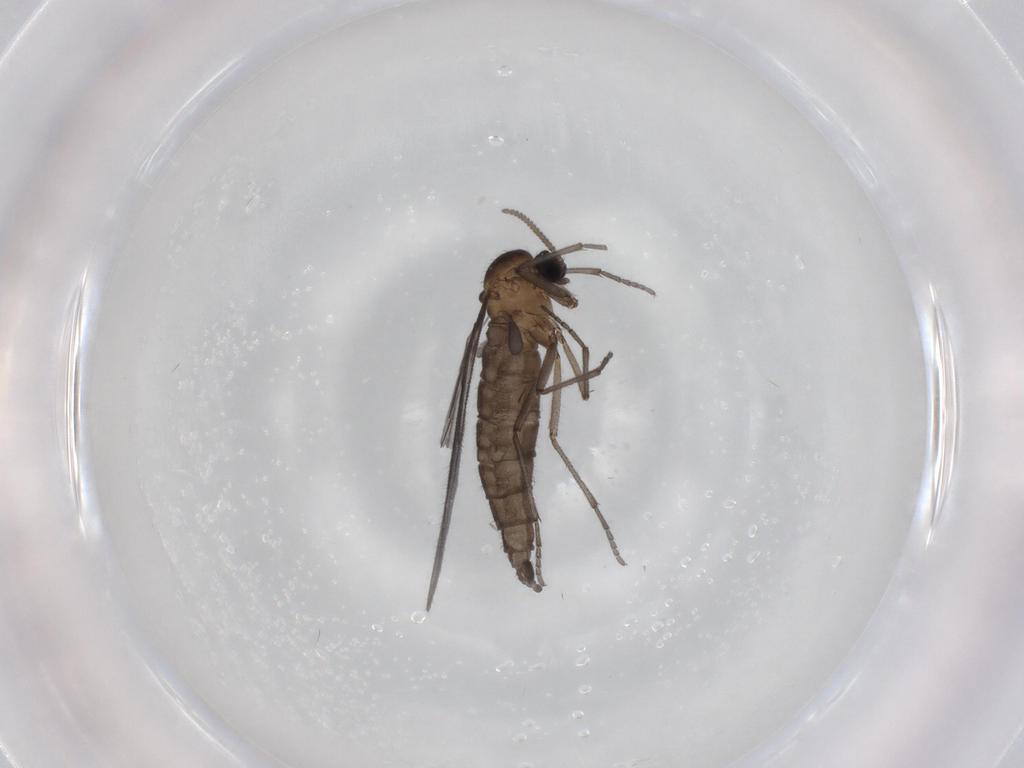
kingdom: Animalia
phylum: Arthropoda
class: Insecta
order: Diptera
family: Sciaridae
